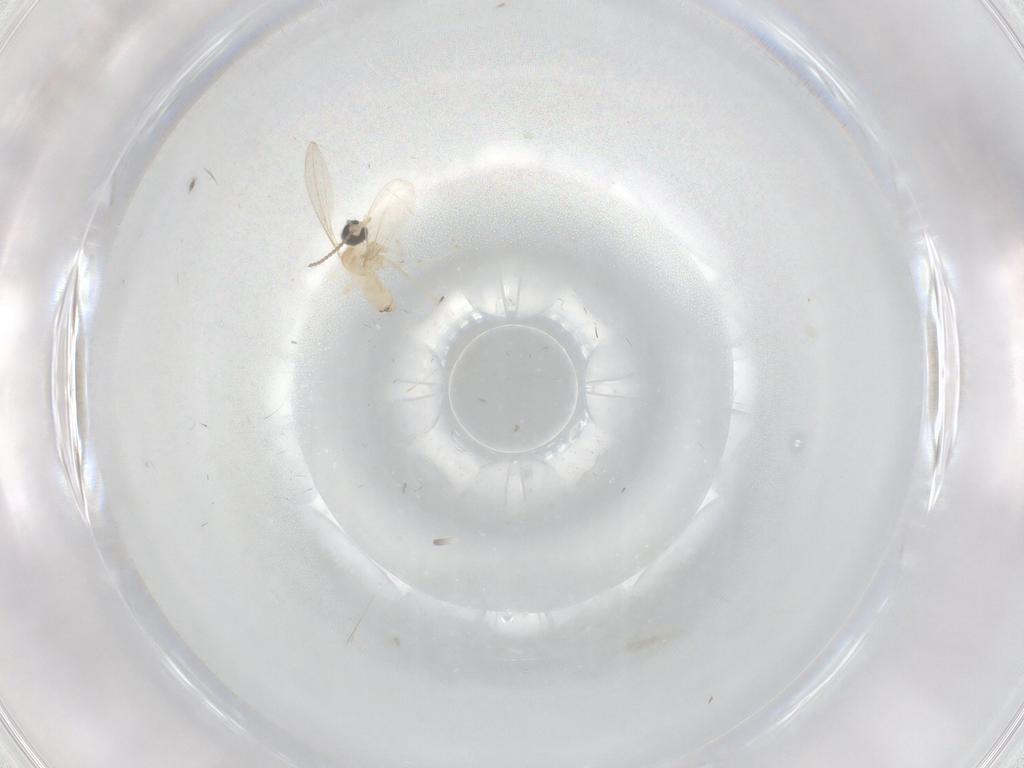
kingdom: Animalia
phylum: Arthropoda
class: Insecta
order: Diptera
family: Cecidomyiidae
